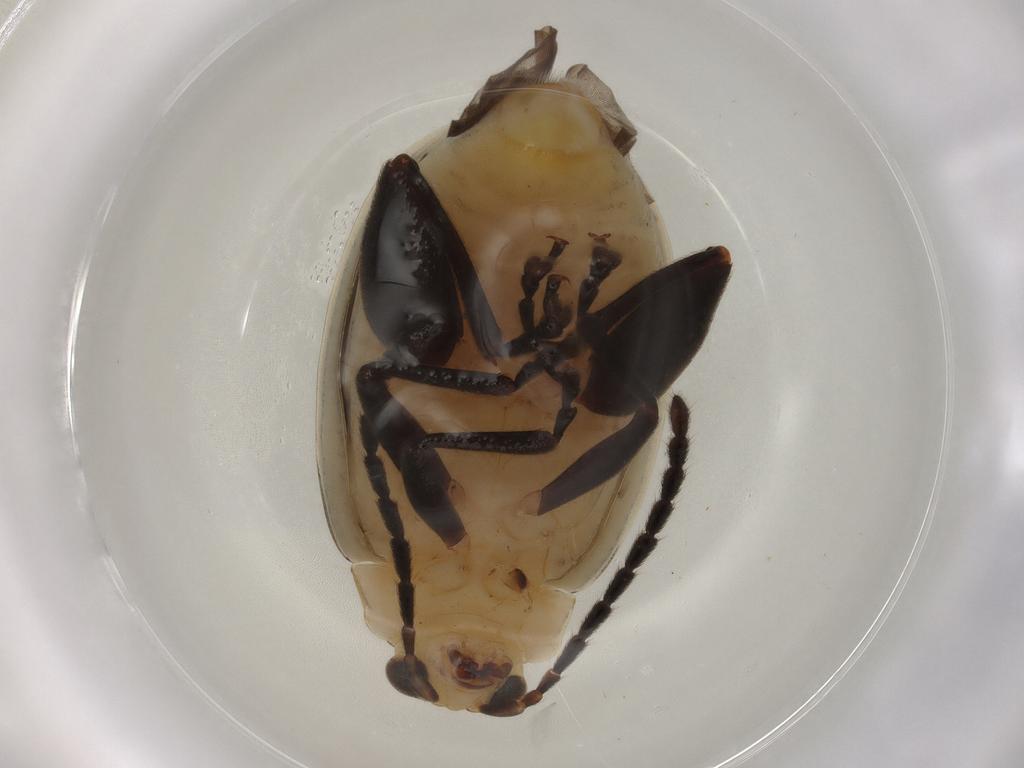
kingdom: Animalia
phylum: Arthropoda
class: Insecta
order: Coleoptera
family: Chrysomelidae
